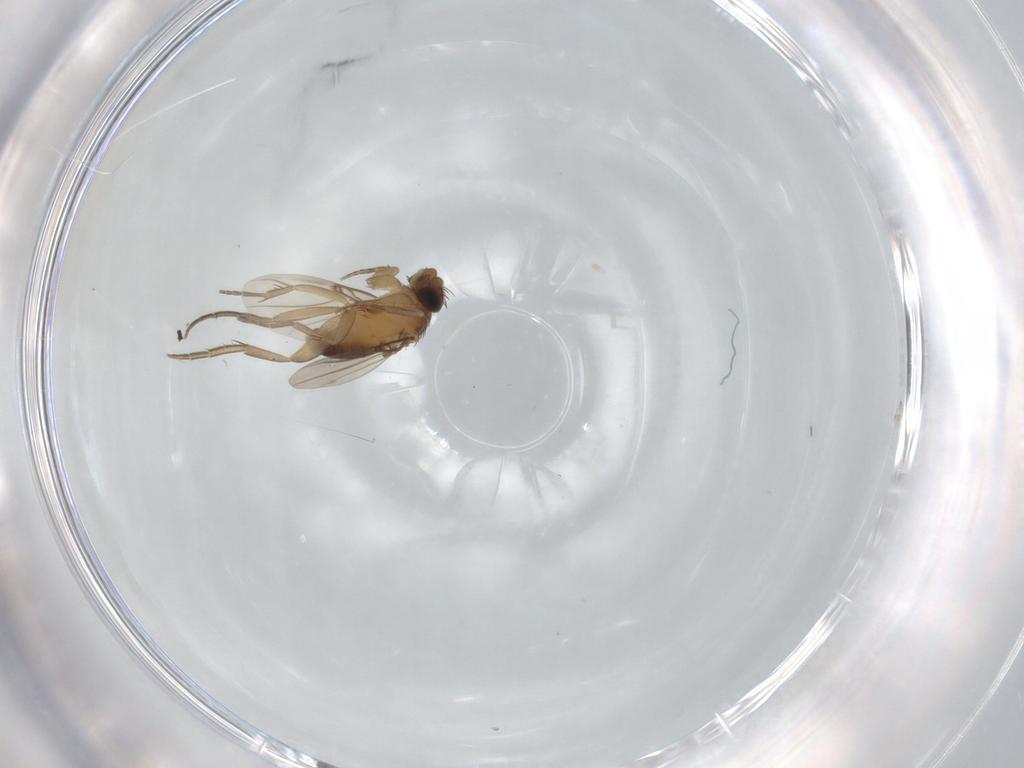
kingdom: Animalia
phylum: Arthropoda
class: Insecta
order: Diptera
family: Phoridae
